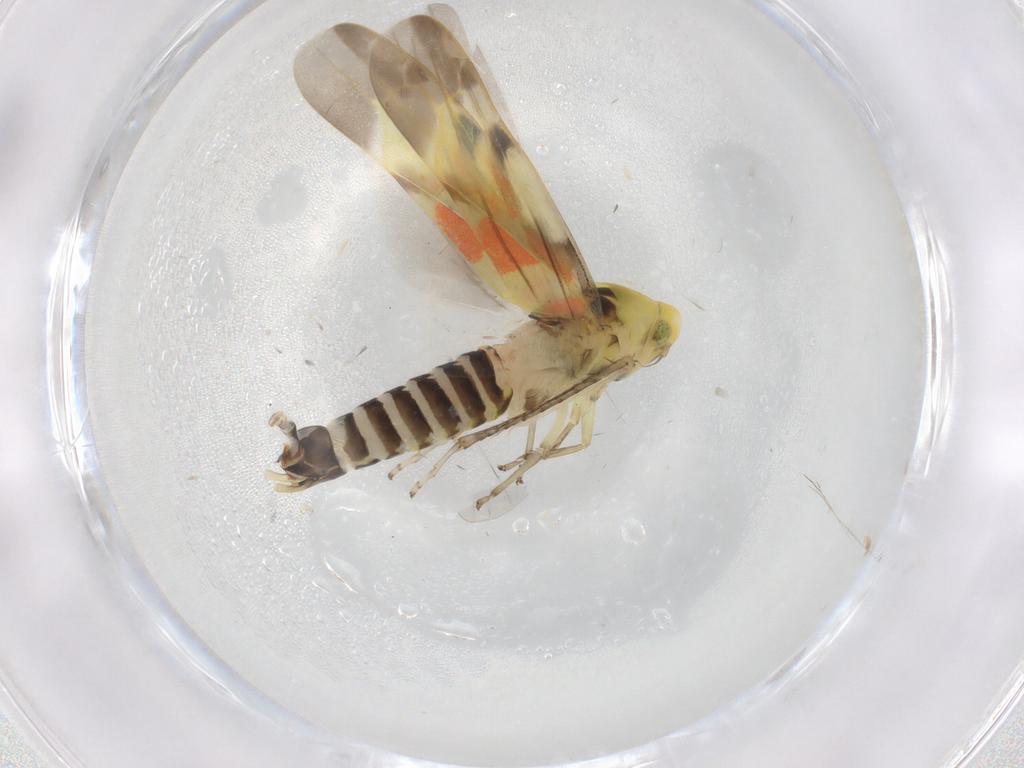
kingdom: Animalia
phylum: Arthropoda
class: Insecta
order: Hemiptera
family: Cicadellidae
